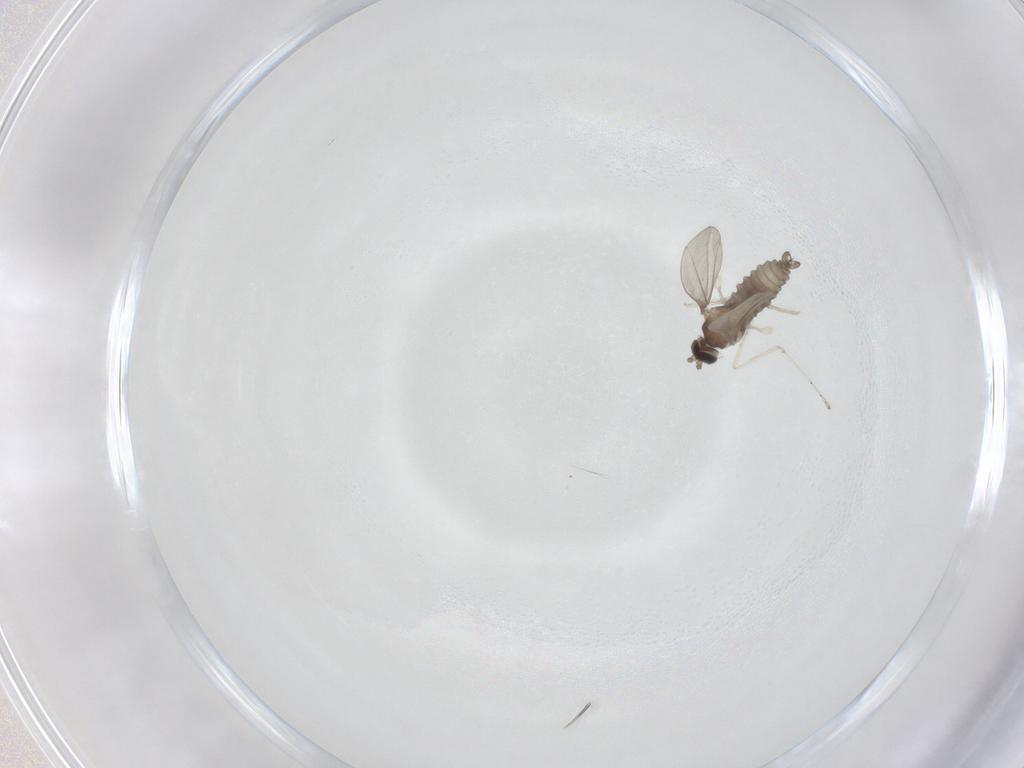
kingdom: Animalia
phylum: Arthropoda
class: Insecta
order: Diptera
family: Cecidomyiidae
